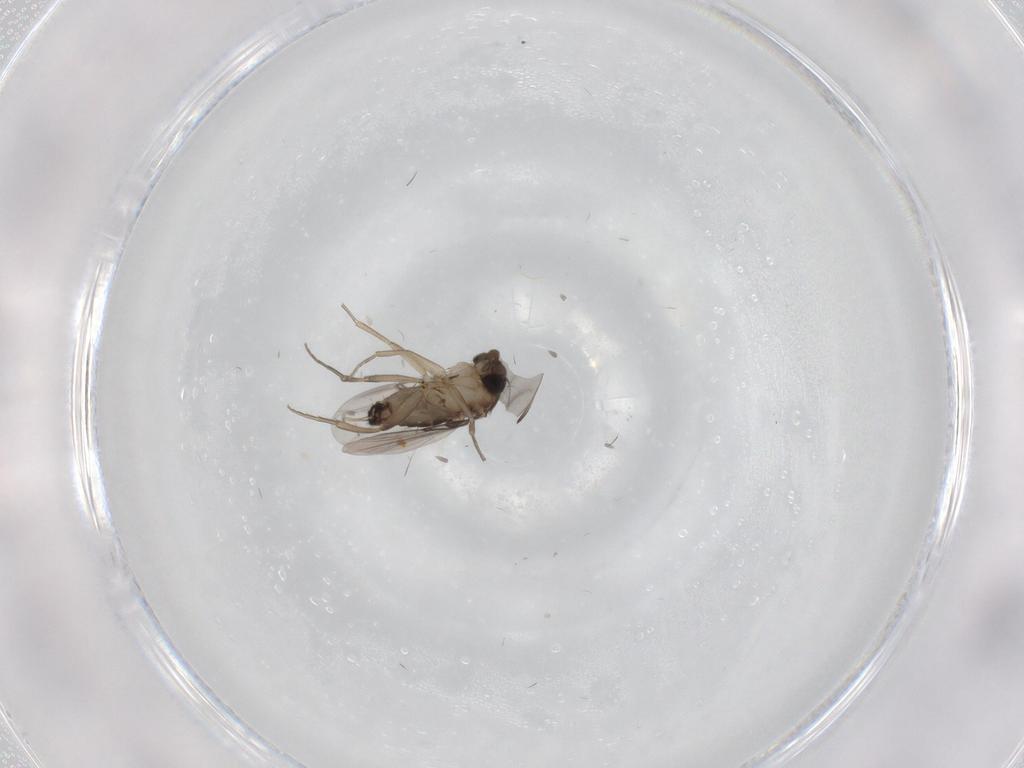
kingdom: Animalia
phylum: Arthropoda
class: Insecta
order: Diptera
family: Phoridae
